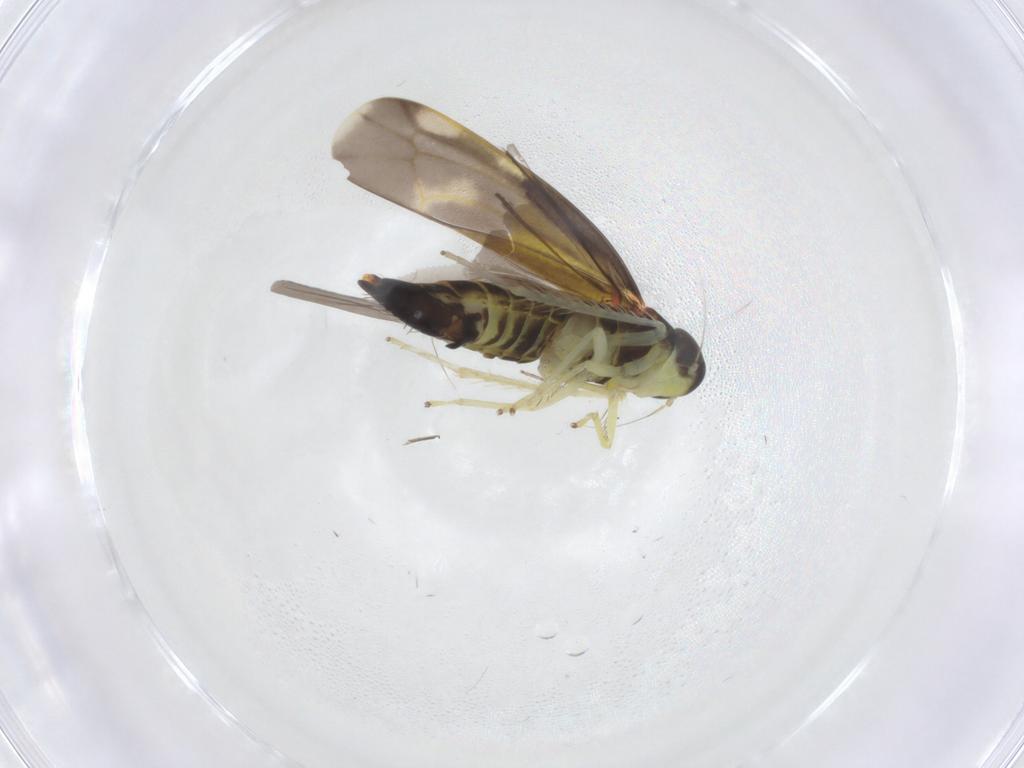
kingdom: Animalia
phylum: Arthropoda
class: Insecta
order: Hemiptera
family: Cicadellidae
